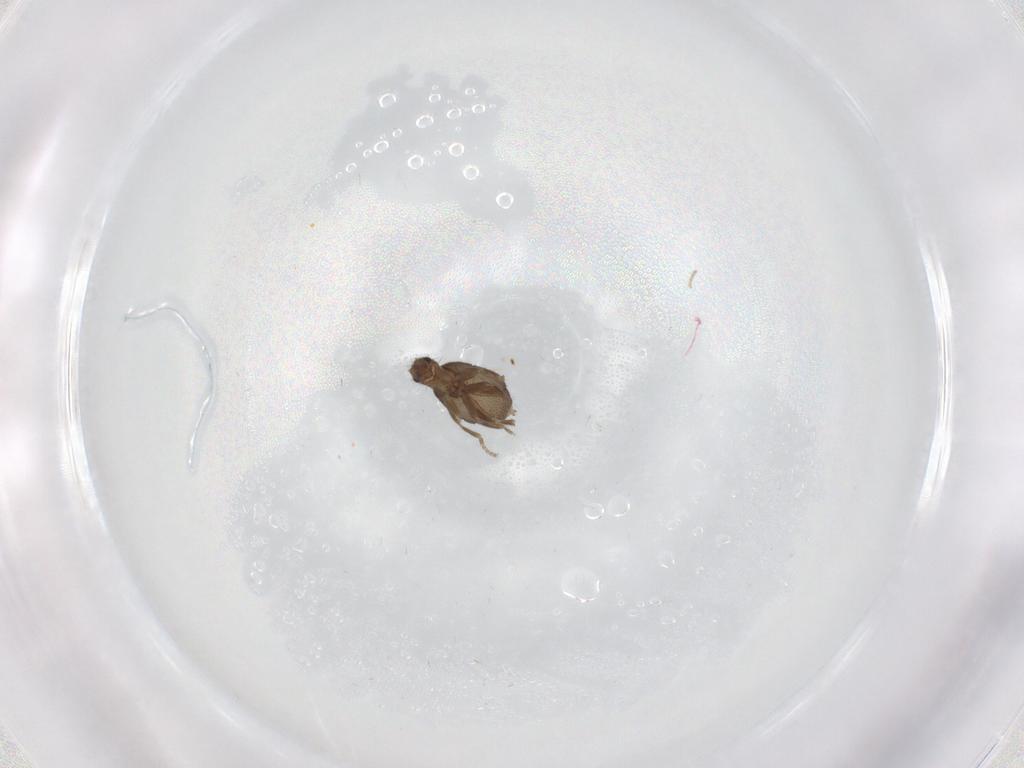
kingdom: Animalia
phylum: Arthropoda
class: Insecta
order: Diptera
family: Phoridae
